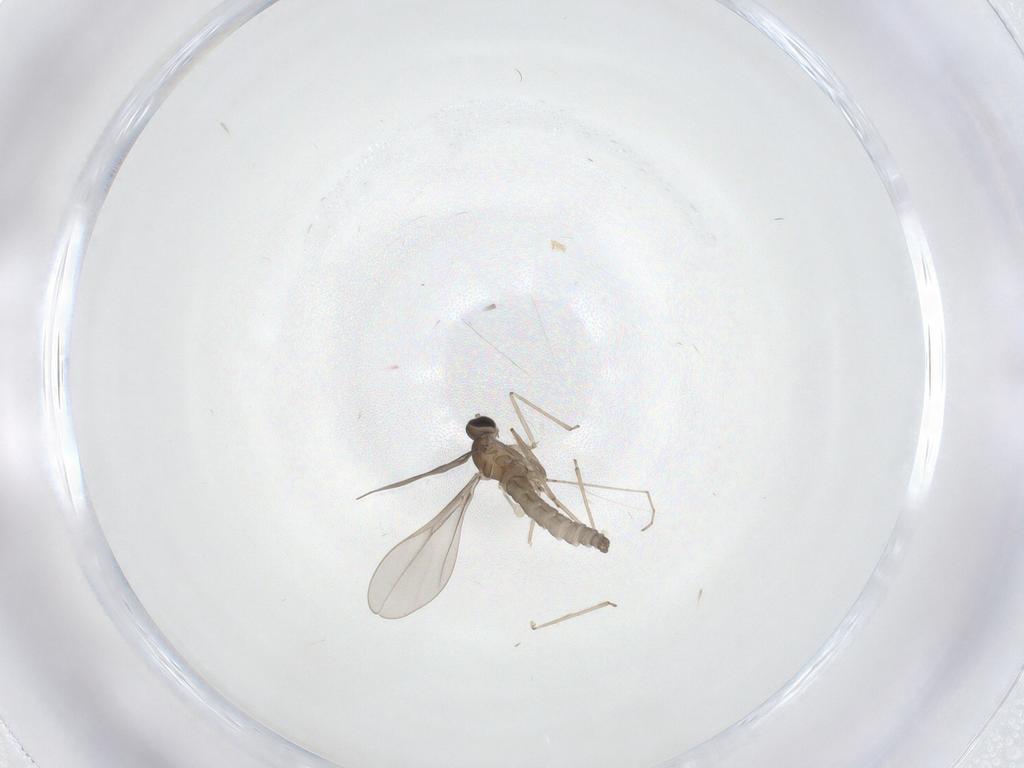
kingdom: Animalia
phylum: Arthropoda
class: Insecta
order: Diptera
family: Cecidomyiidae
